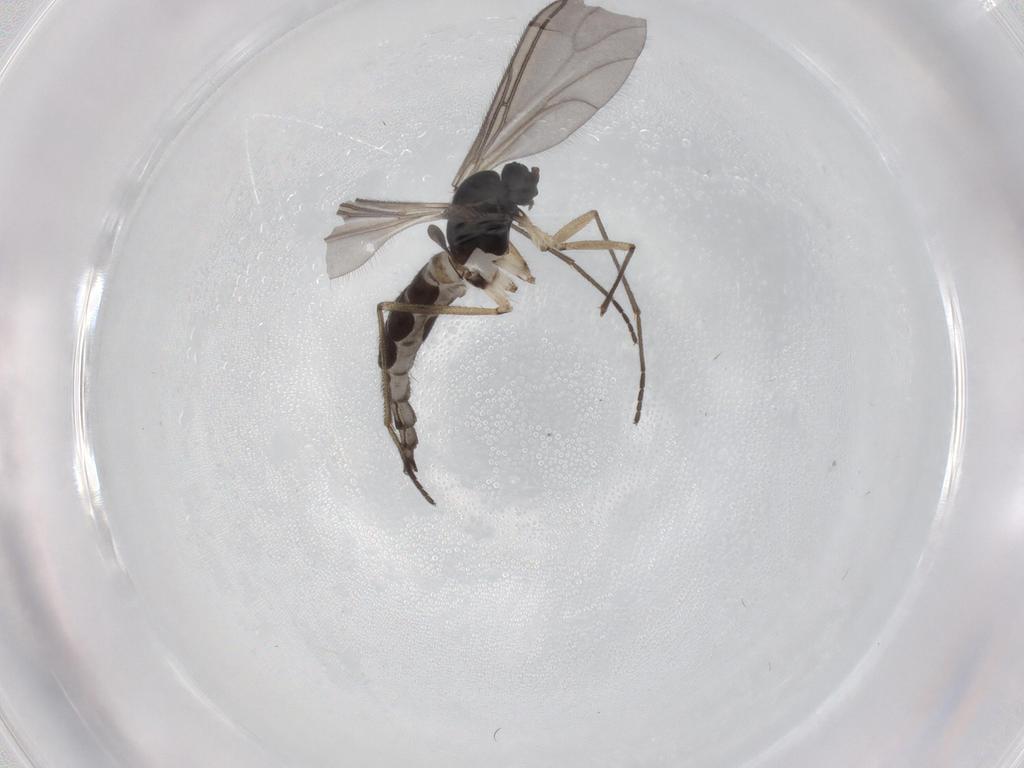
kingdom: Animalia
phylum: Arthropoda
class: Insecta
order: Diptera
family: Sciaridae
